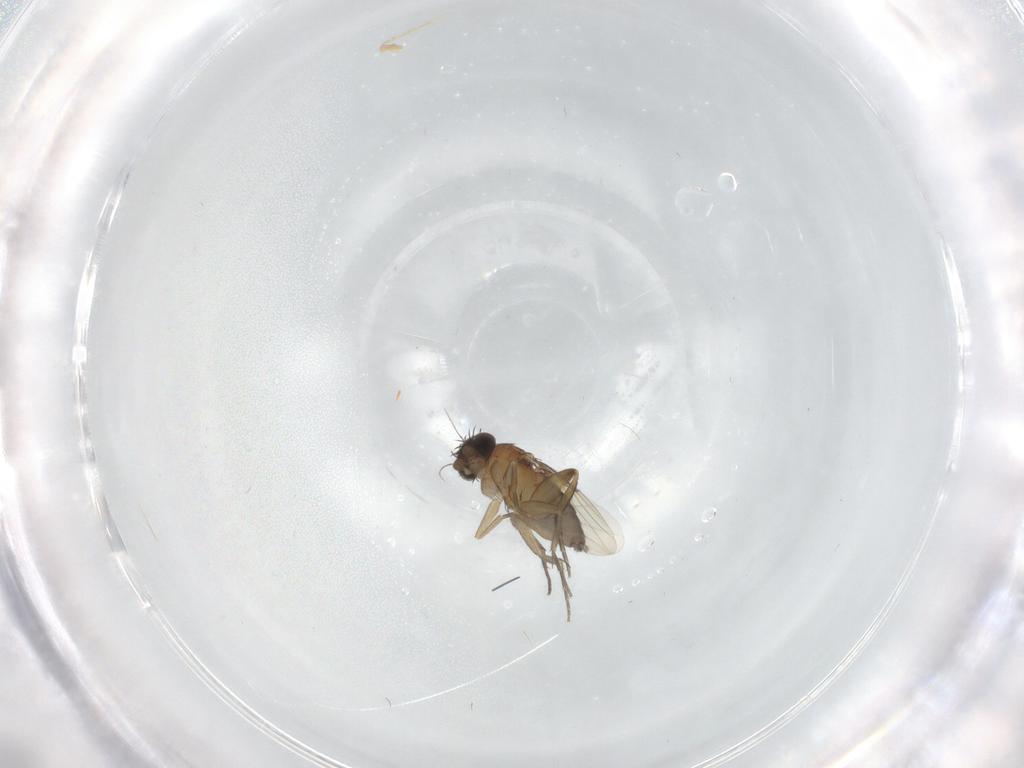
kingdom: Animalia
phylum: Arthropoda
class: Insecta
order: Diptera
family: Phoridae
